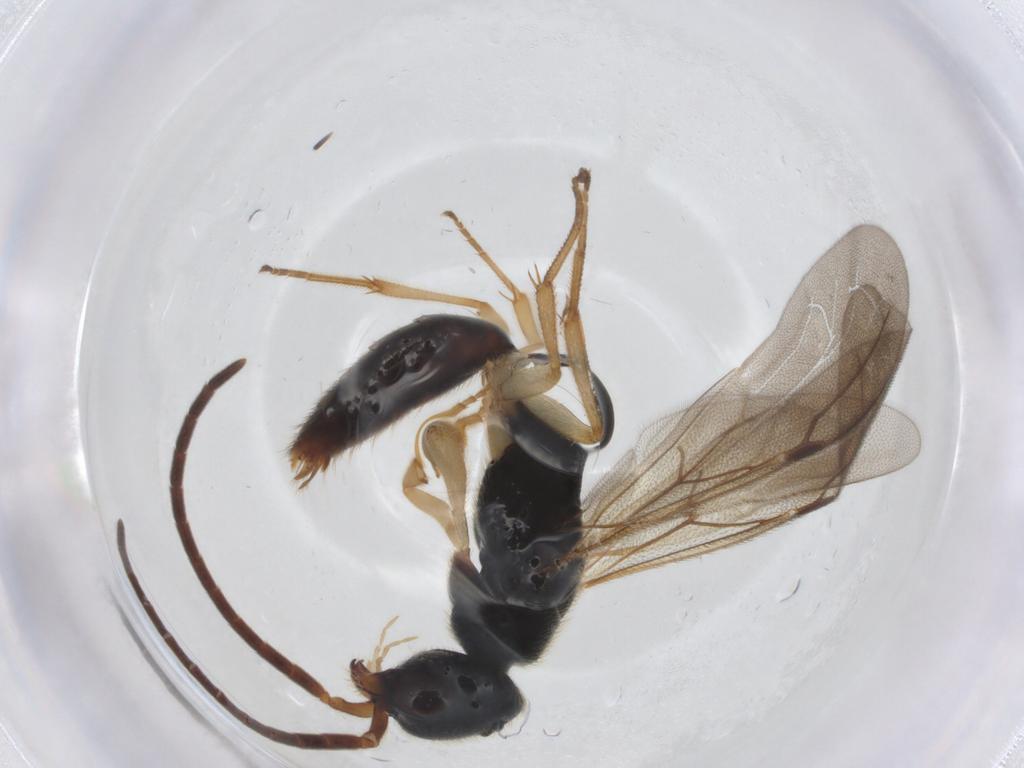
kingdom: Animalia
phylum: Arthropoda
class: Insecta
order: Hymenoptera
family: Bethylidae
